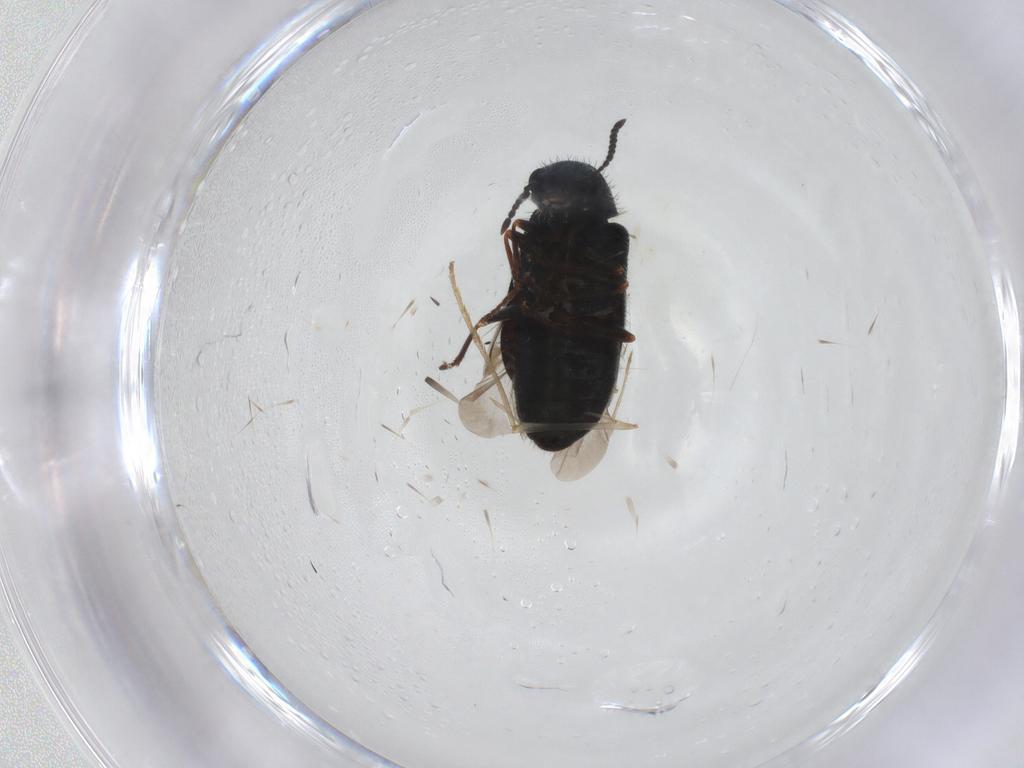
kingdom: Animalia
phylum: Arthropoda
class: Insecta
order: Coleoptera
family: Melyridae
